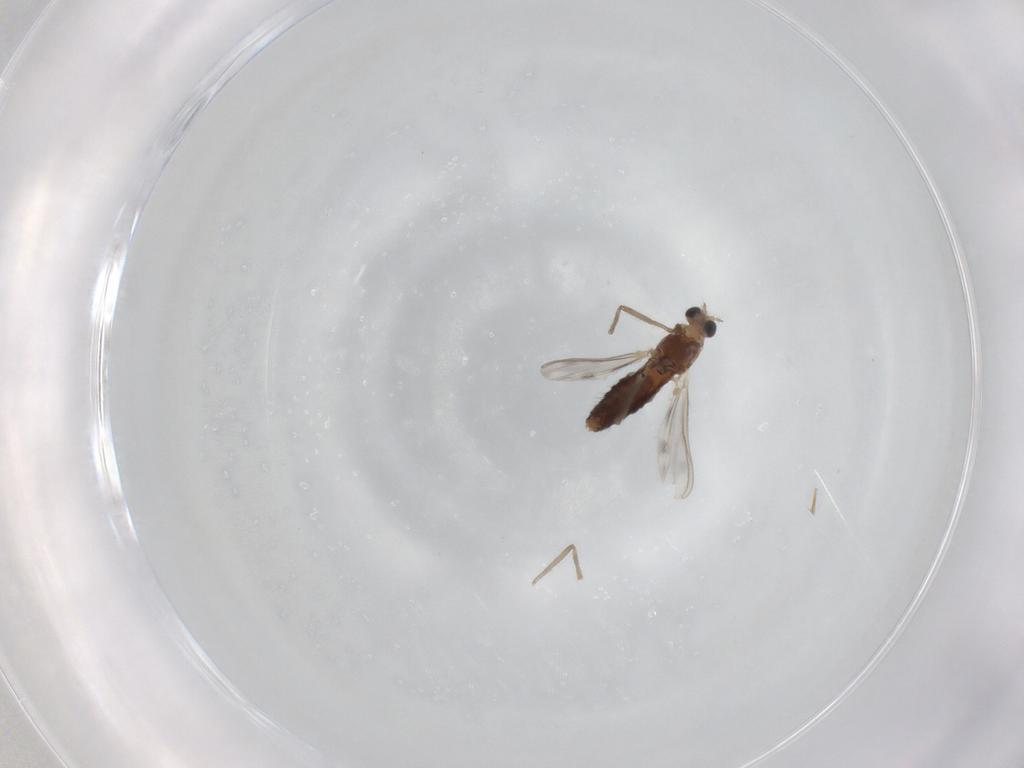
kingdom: Animalia
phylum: Arthropoda
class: Insecta
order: Diptera
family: Chironomidae
